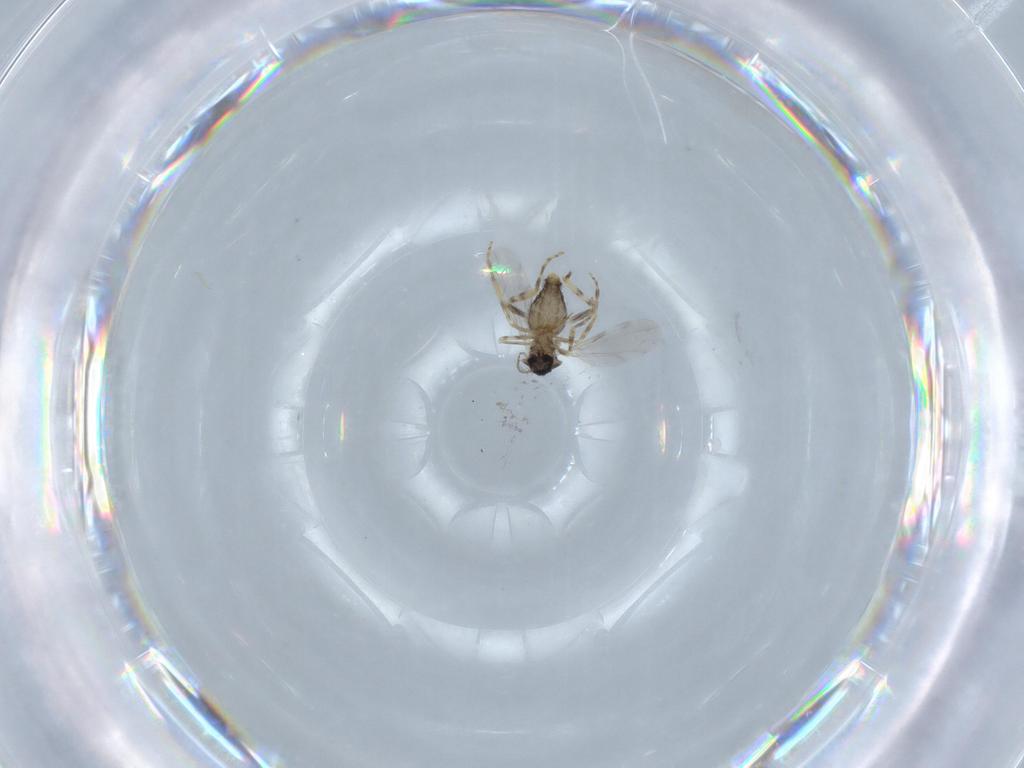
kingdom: Animalia
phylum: Arthropoda
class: Insecta
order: Diptera
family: Ceratopogonidae
